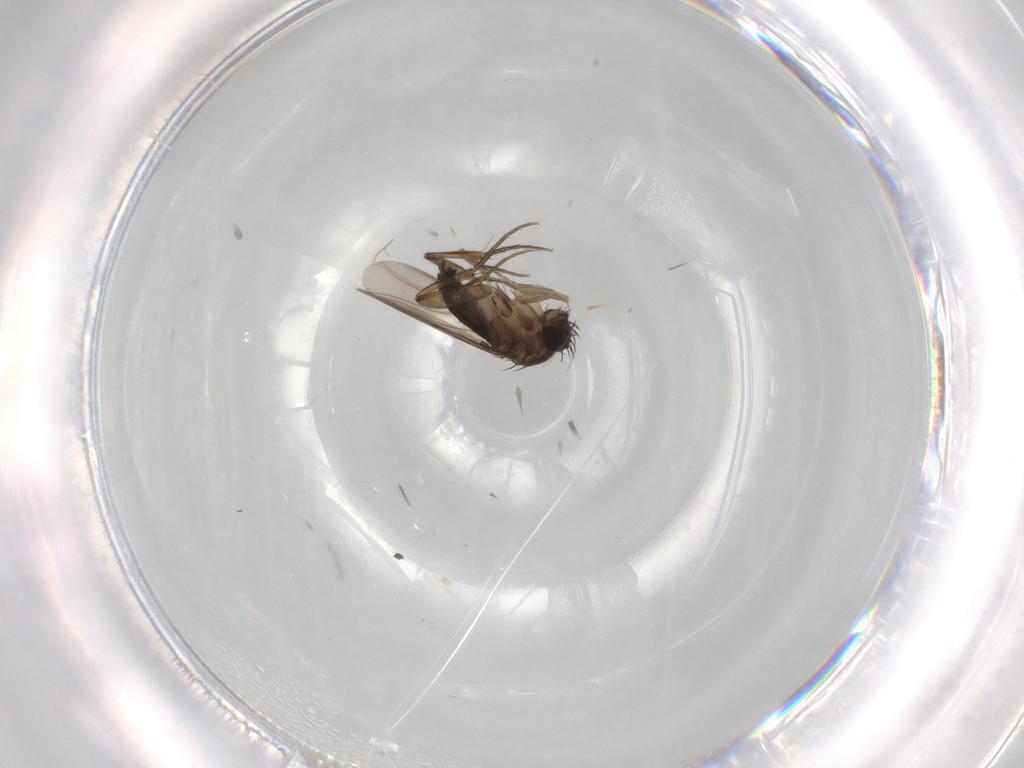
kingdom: Animalia
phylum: Arthropoda
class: Insecta
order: Diptera
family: Phoridae
